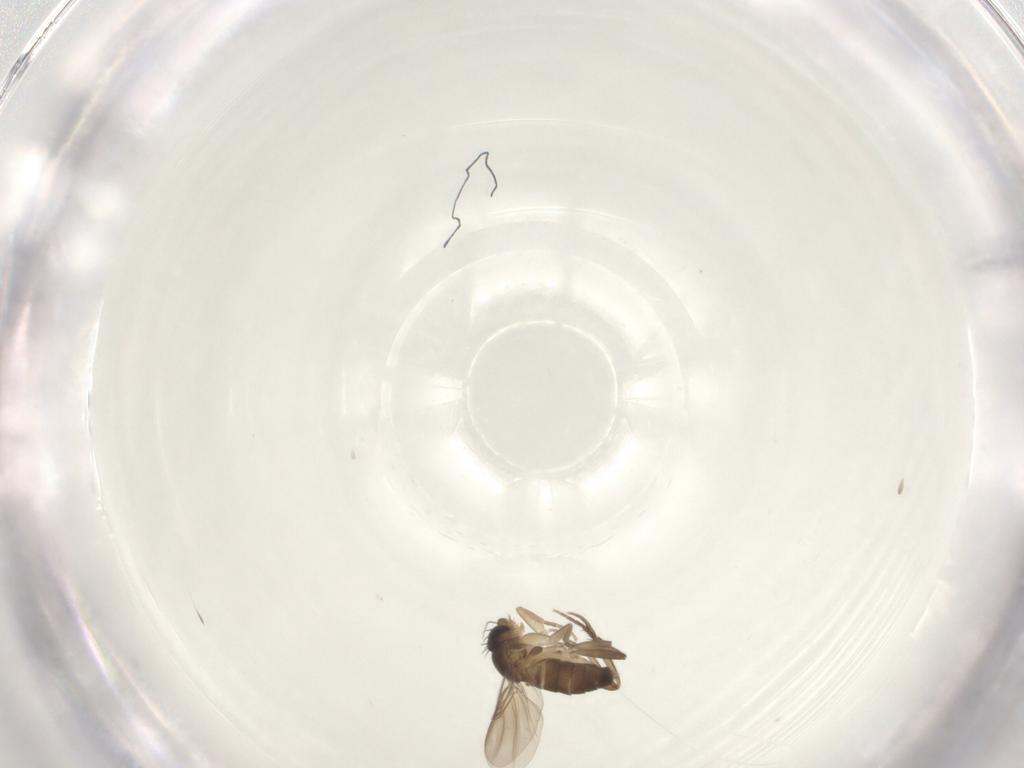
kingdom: Animalia
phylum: Arthropoda
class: Insecta
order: Diptera
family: Phoridae
